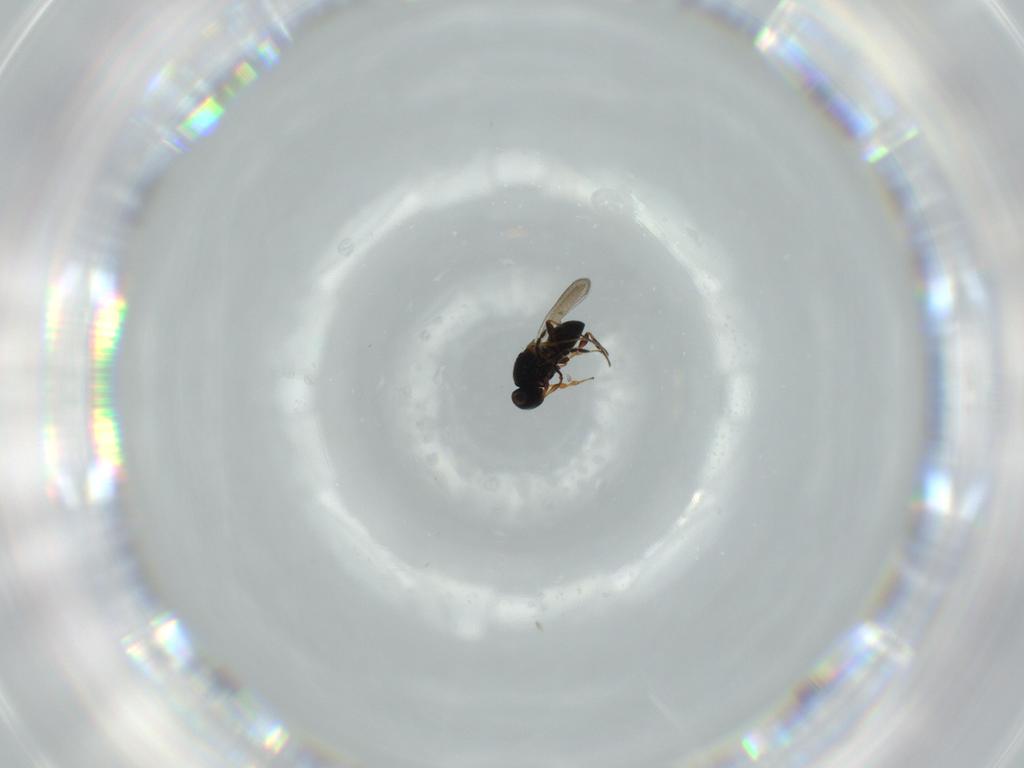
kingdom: Animalia
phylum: Arthropoda
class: Insecta
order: Hymenoptera
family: Platygastridae
